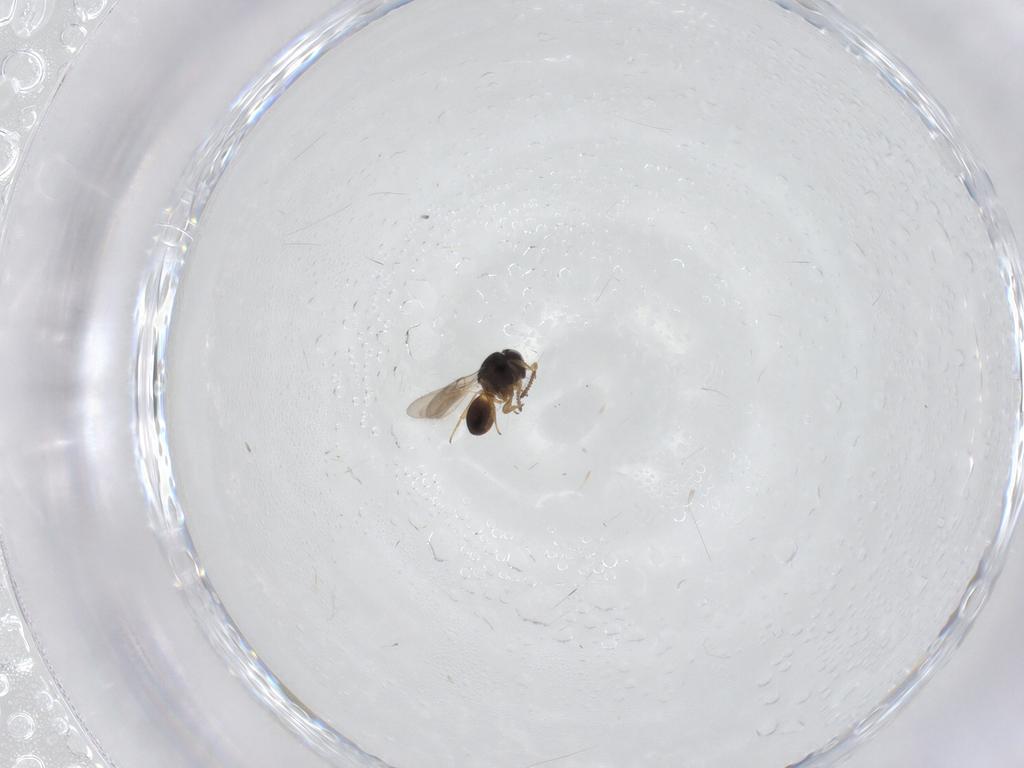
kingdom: Animalia
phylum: Arthropoda
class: Insecta
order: Hymenoptera
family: Scelionidae
